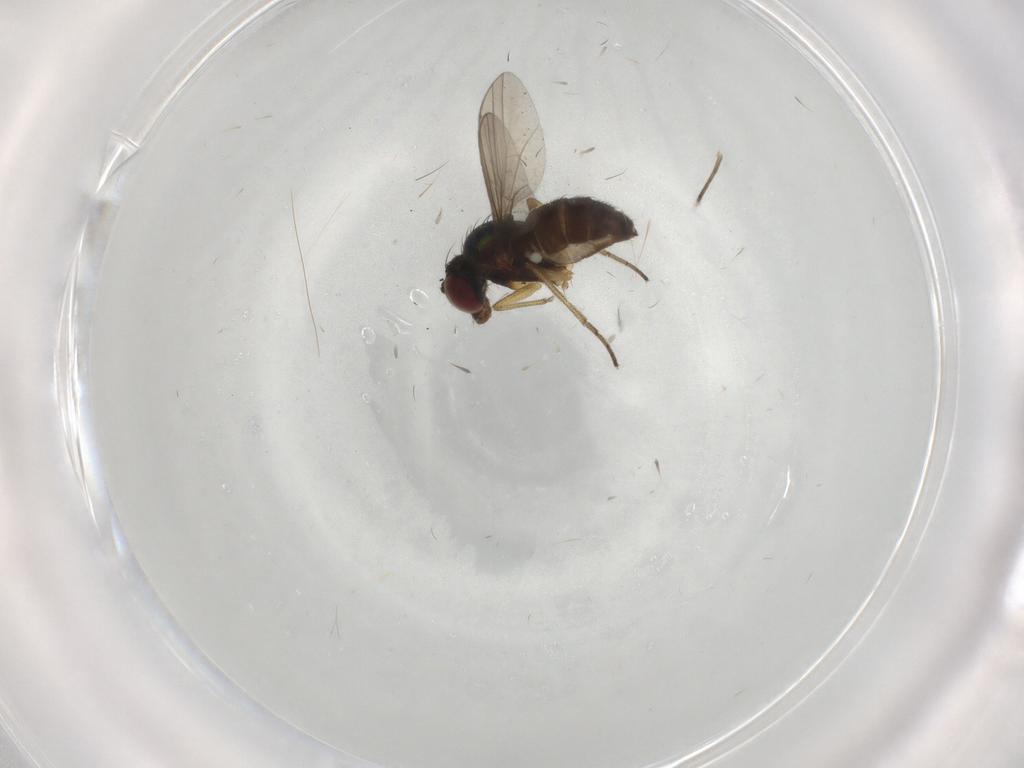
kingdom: Animalia
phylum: Arthropoda
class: Insecta
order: Diptera
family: Dolichopodidae
